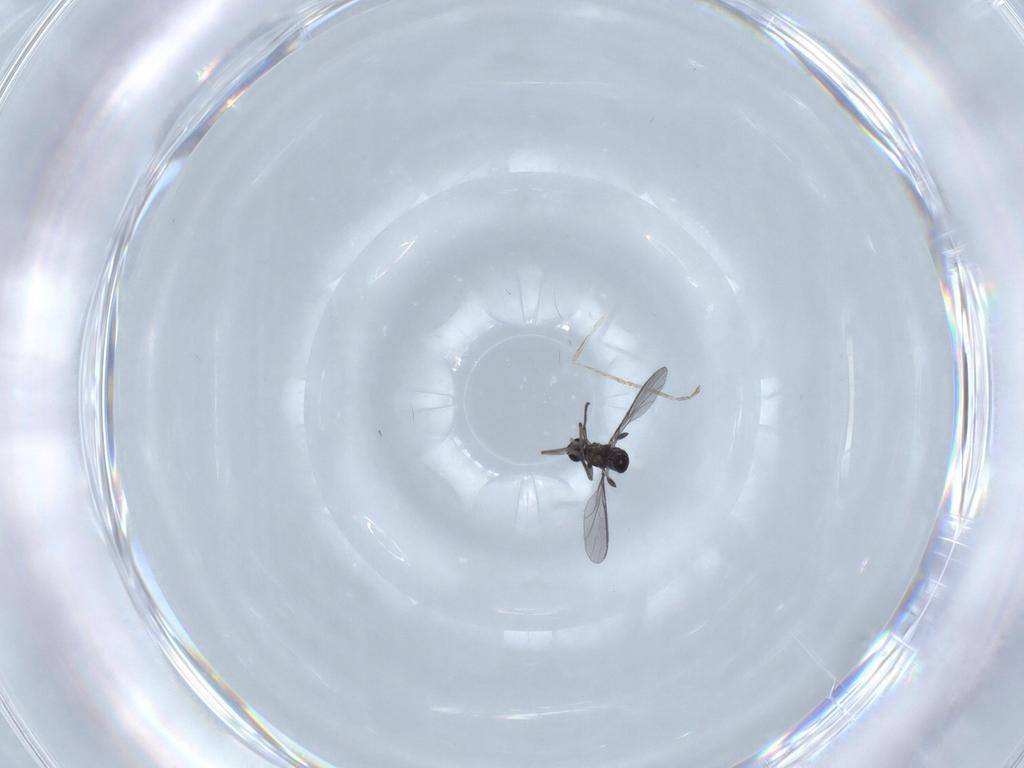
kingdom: Animalia
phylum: Arthropoda
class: Insecta
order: Diptera
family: Sciaridae
